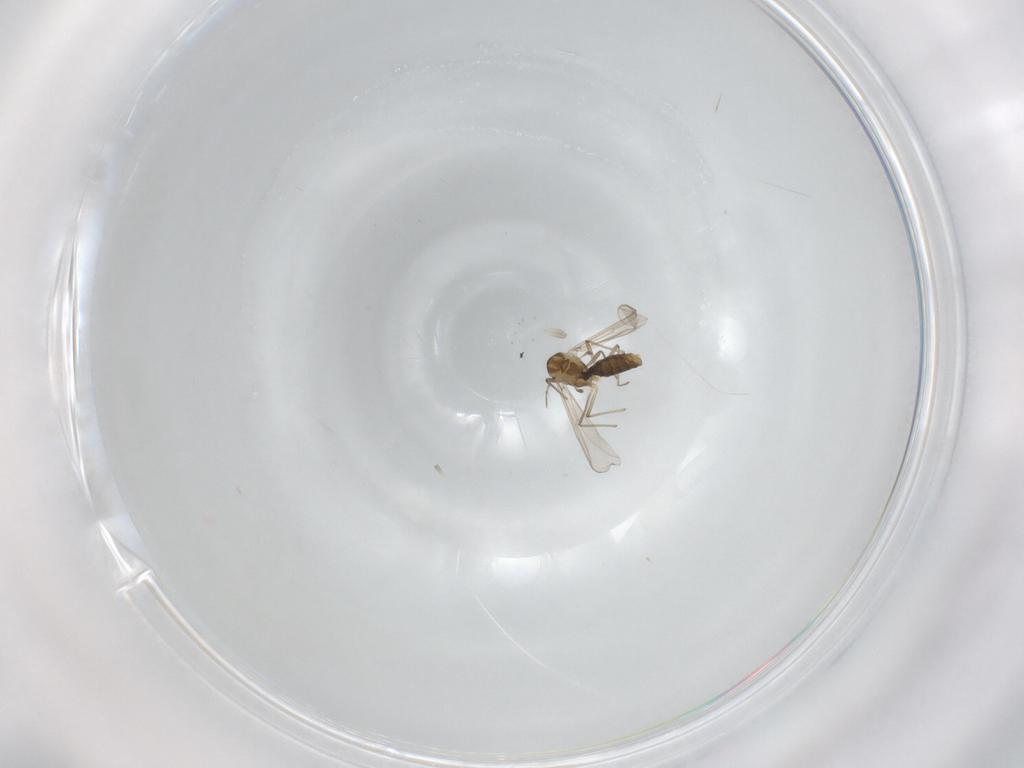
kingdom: Animalia
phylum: Arthropoda
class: Insecta
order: Diptera
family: Chironomidae
